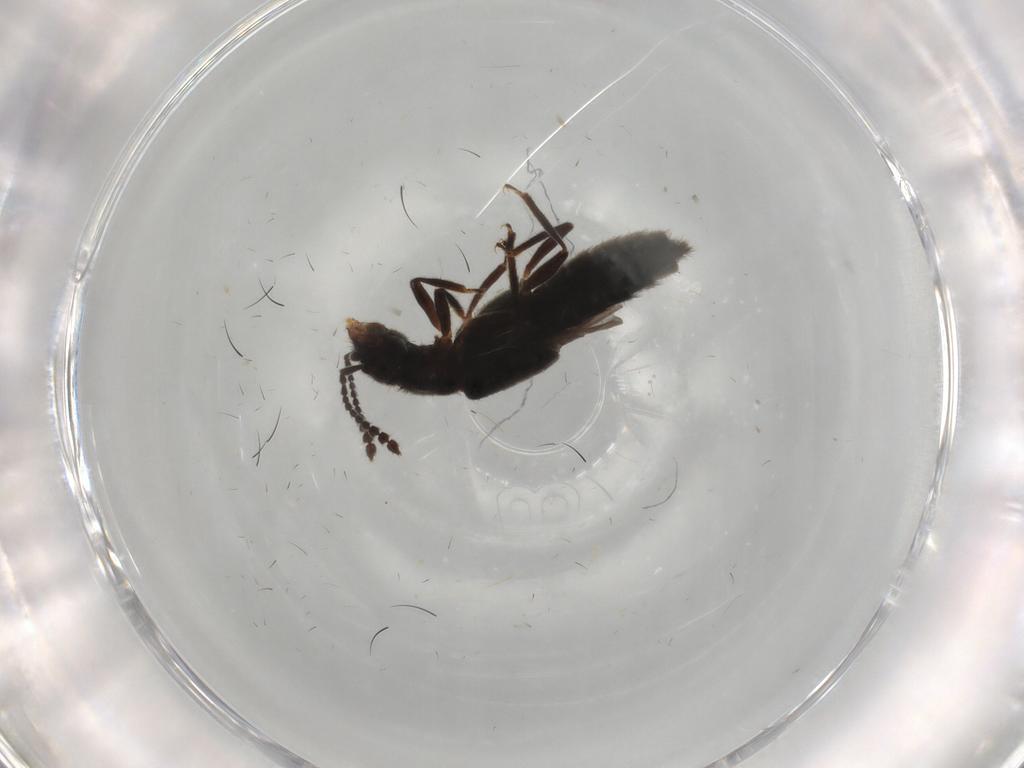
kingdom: Animalia
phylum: Arthropoda
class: Insecta
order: Coleoptera
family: Staphylinidae
